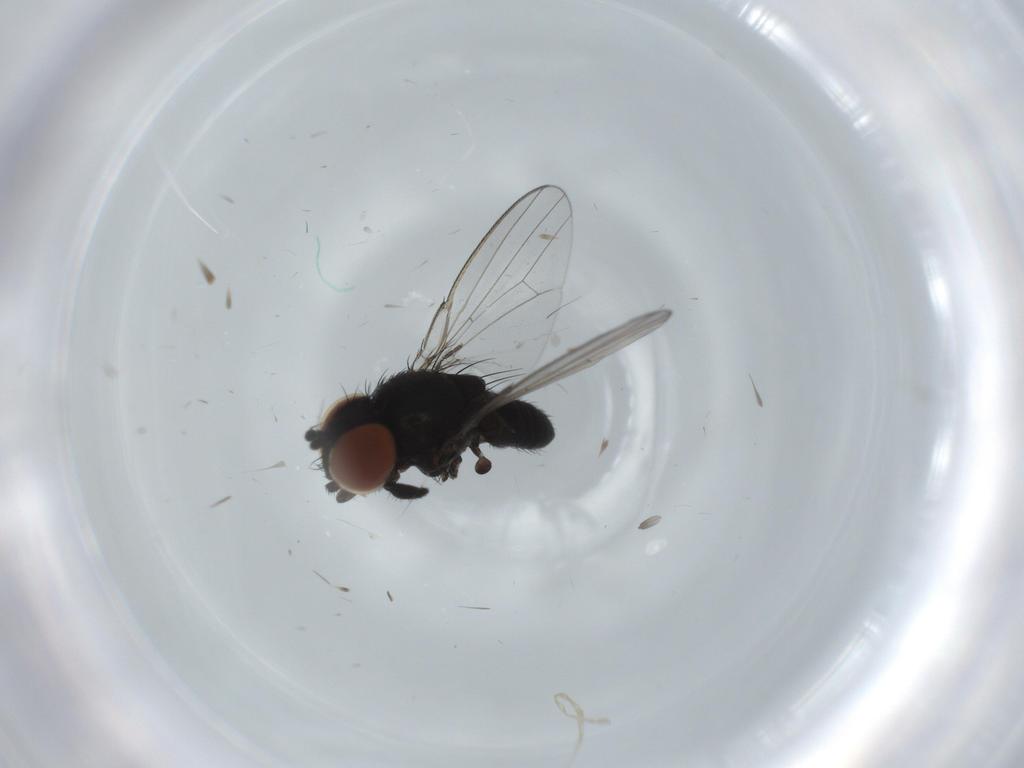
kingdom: Animalia
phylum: Arthropoda
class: Insecta
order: Diptera
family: Milichiidae
